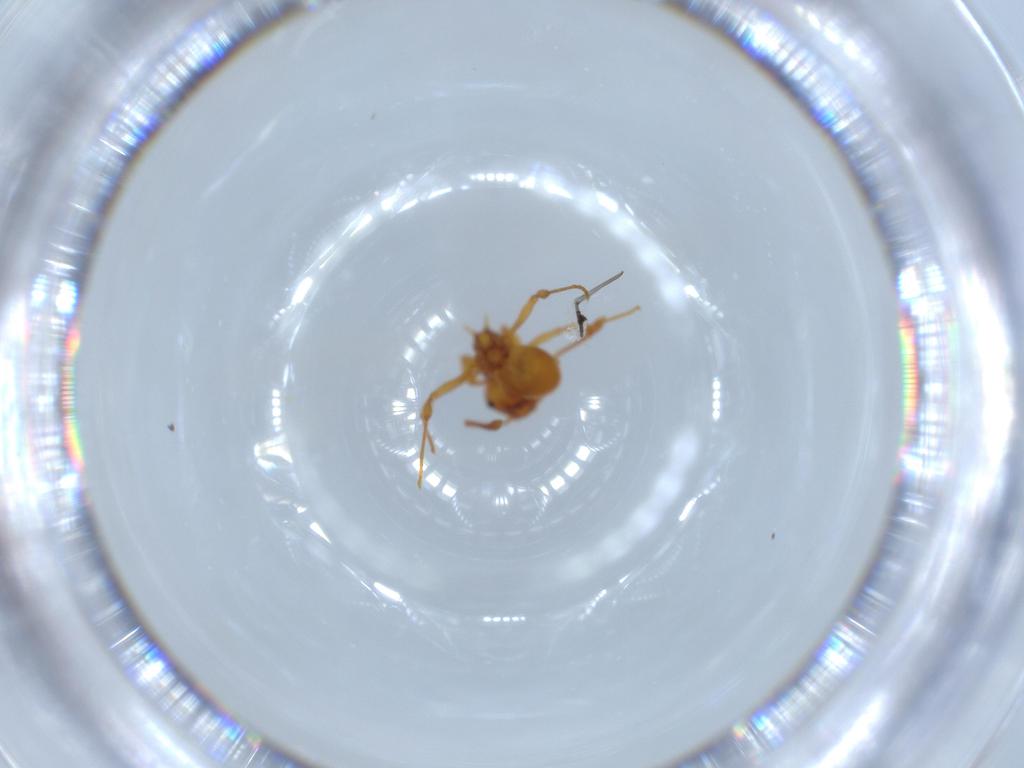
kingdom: Animalia
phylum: Arthropoda
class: Insecta
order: Hymenoptera
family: Formicidae
